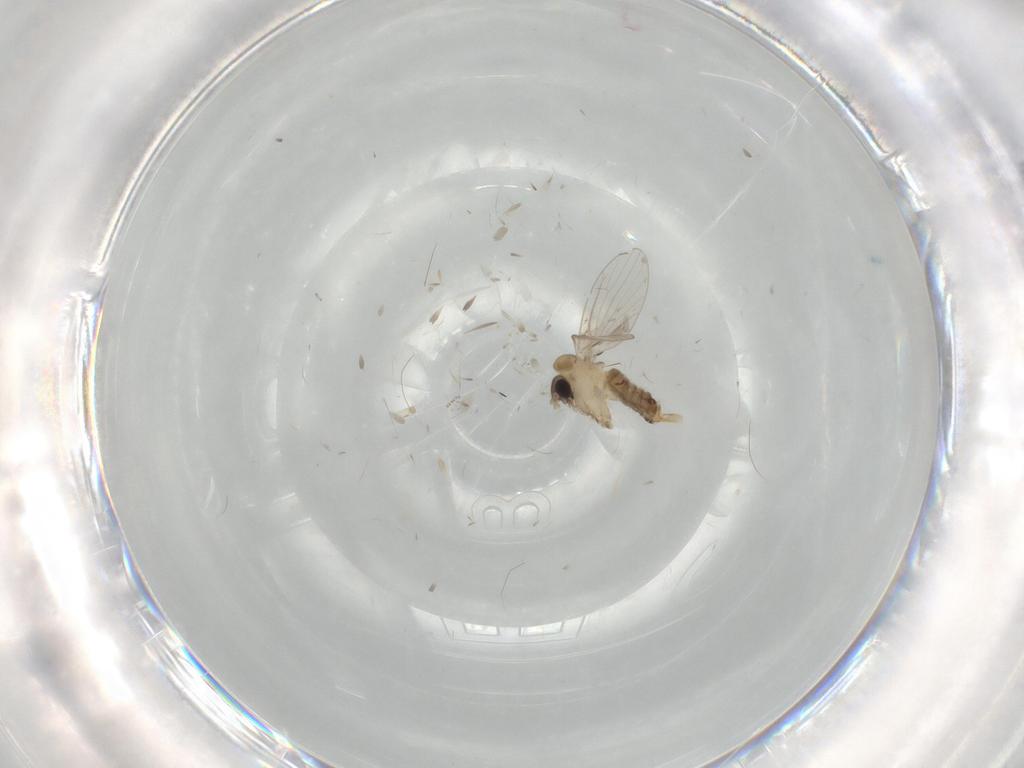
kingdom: Animalia
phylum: Arthropoda
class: Insecta
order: Diptera
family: Psychodidae
